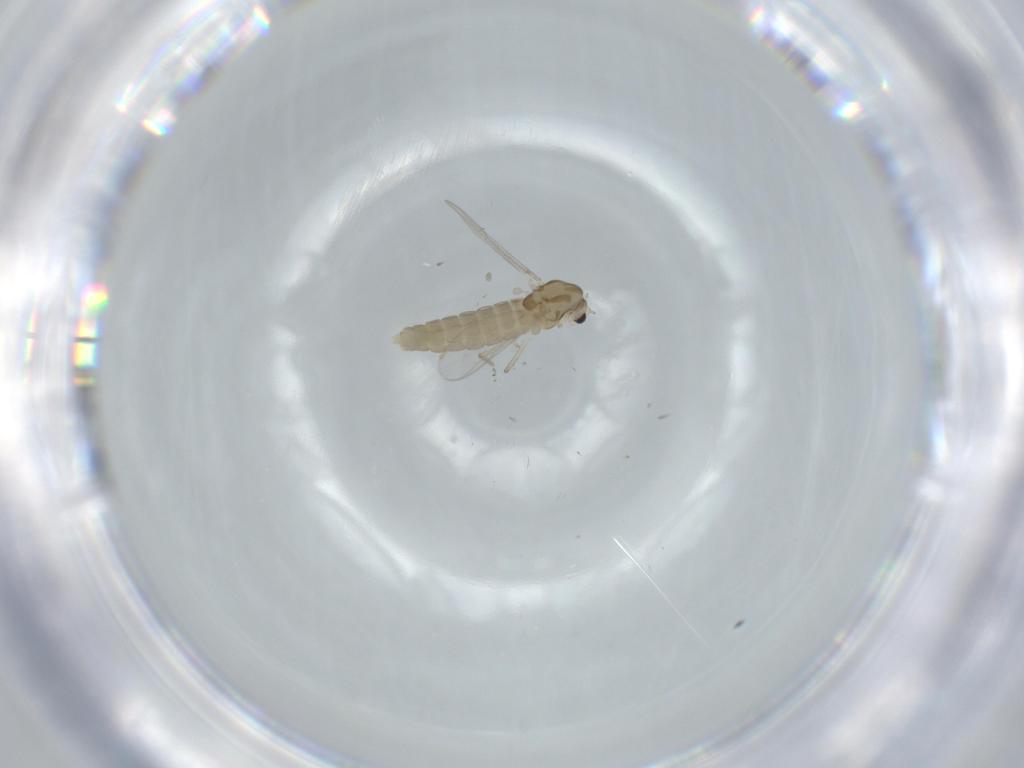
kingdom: Animalia
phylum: Arthropoda
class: Insecta
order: Diptera
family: Chironomidae
